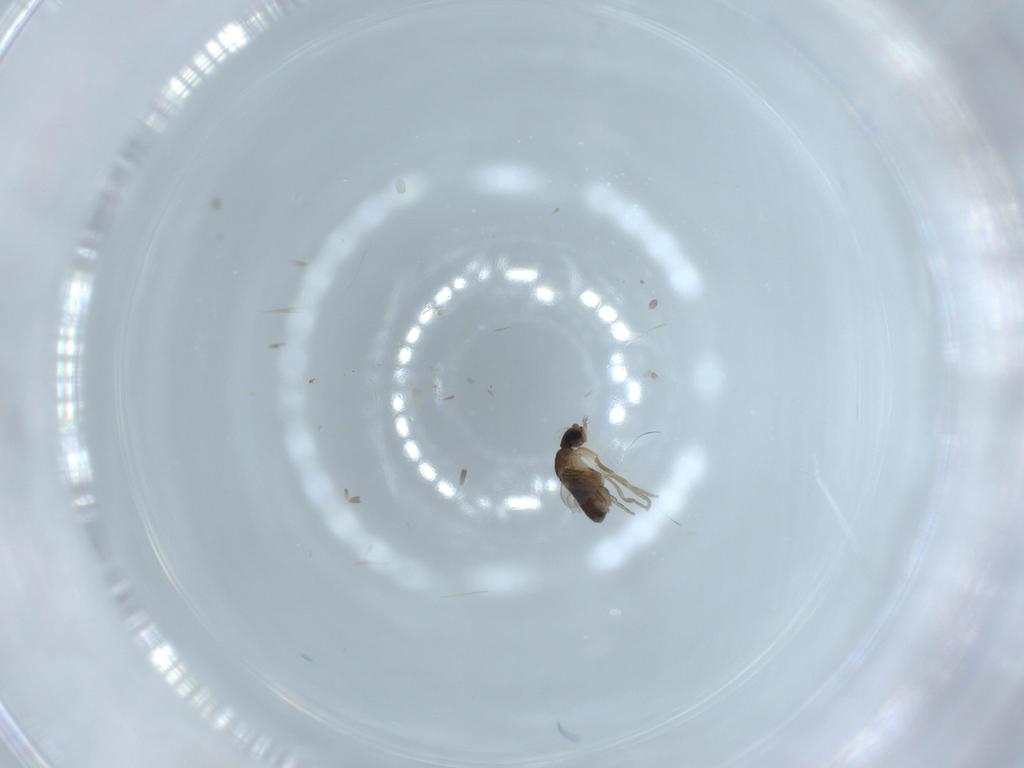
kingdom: Animalia
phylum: Arthropoda
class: Insecta
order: Diptera
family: Phoridae
